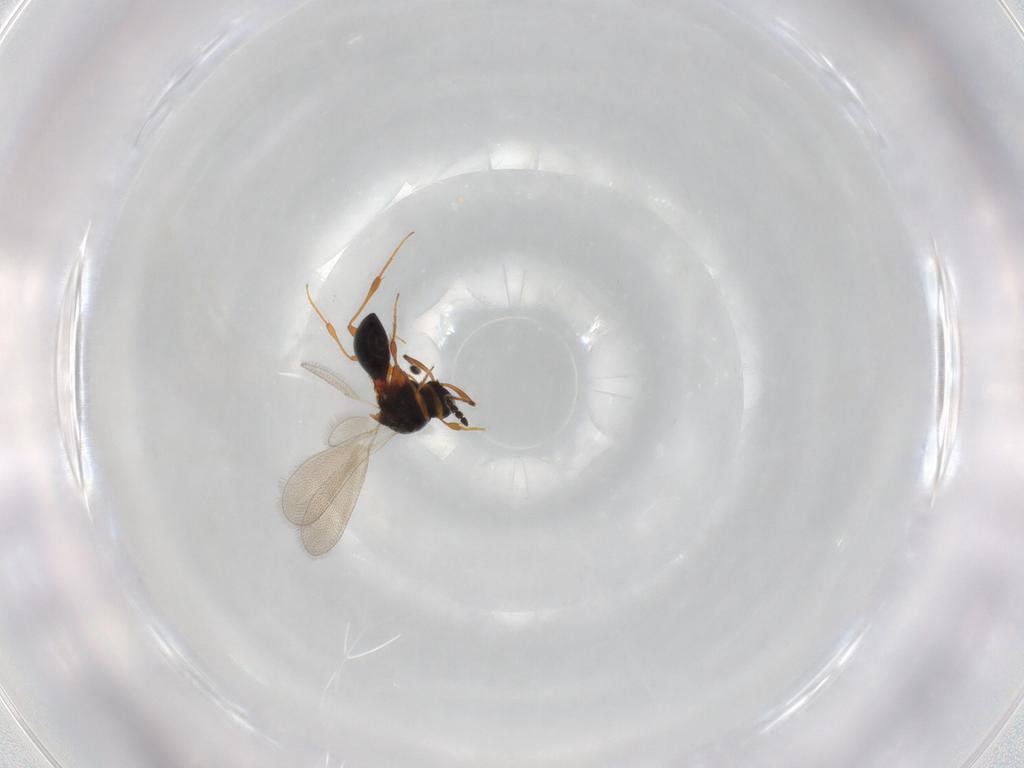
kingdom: Animalia
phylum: Arthropoda
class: Insecta
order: Hymenoptera
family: Platygastridae
